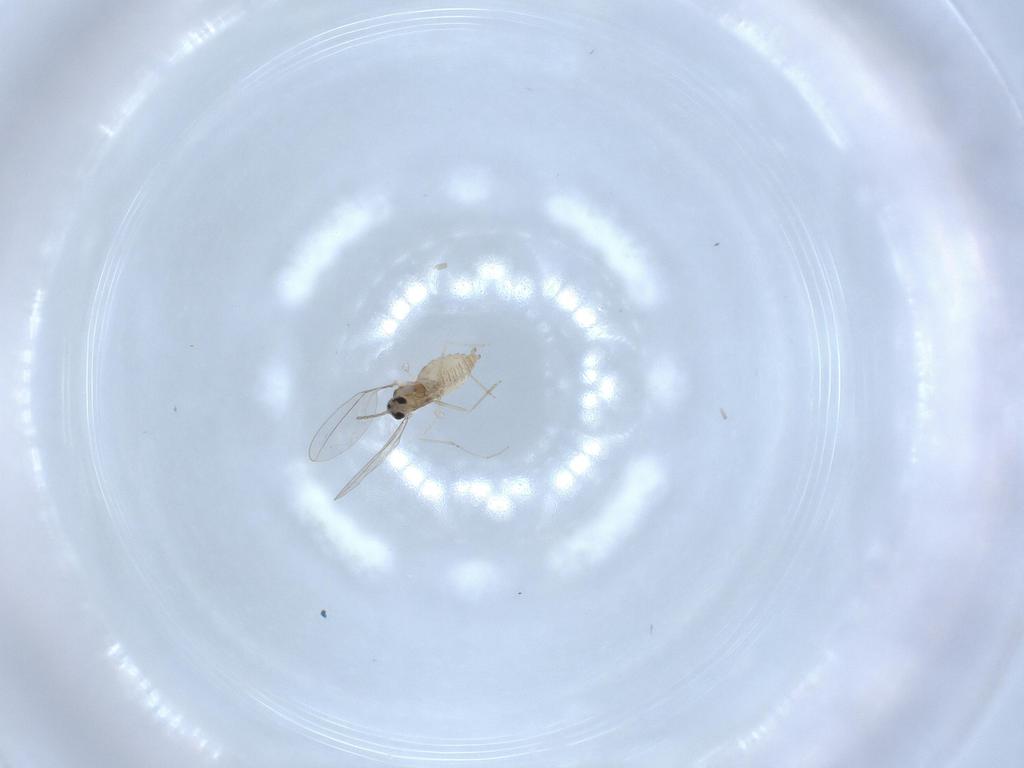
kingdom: Animalia
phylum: Arthropoda
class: Insecta
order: Diptera
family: Cecidomyiidae
